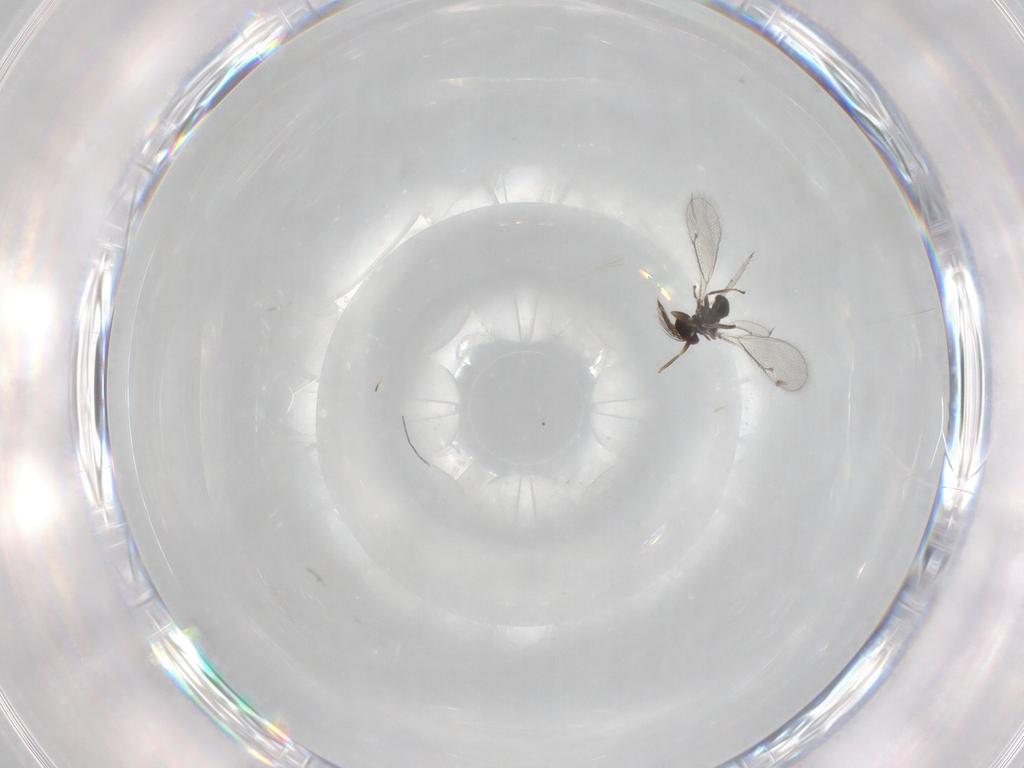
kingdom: Animalia
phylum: Arthropoda
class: Insecta
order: Hymenoptera
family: Eulophidae
